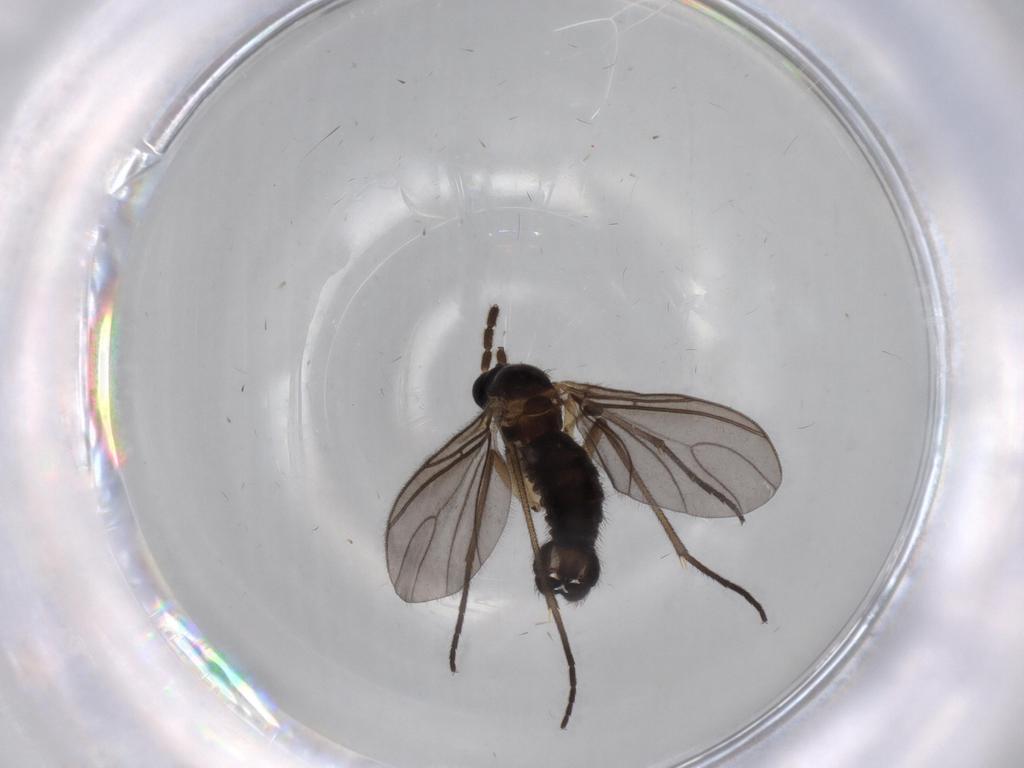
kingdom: Animalia
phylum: Arthropoda
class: Insecta
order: Diptera
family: Sciaridae
